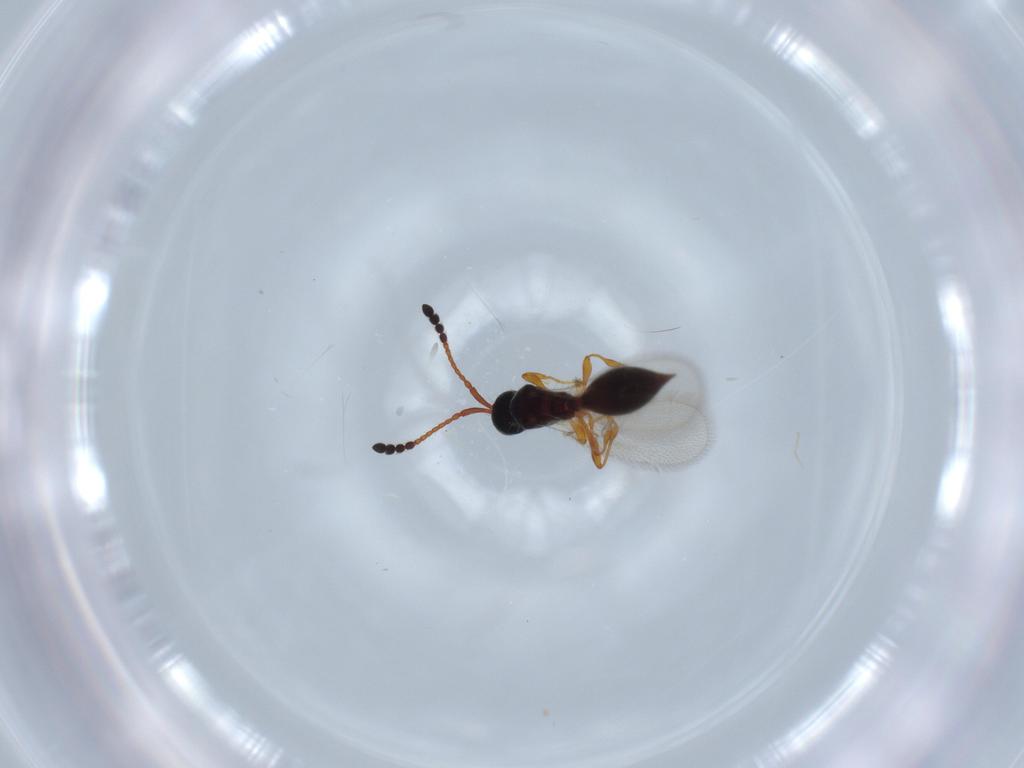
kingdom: Animalia
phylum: Arthropoda
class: Insecta
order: Hymenoptera
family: Diapriidae
